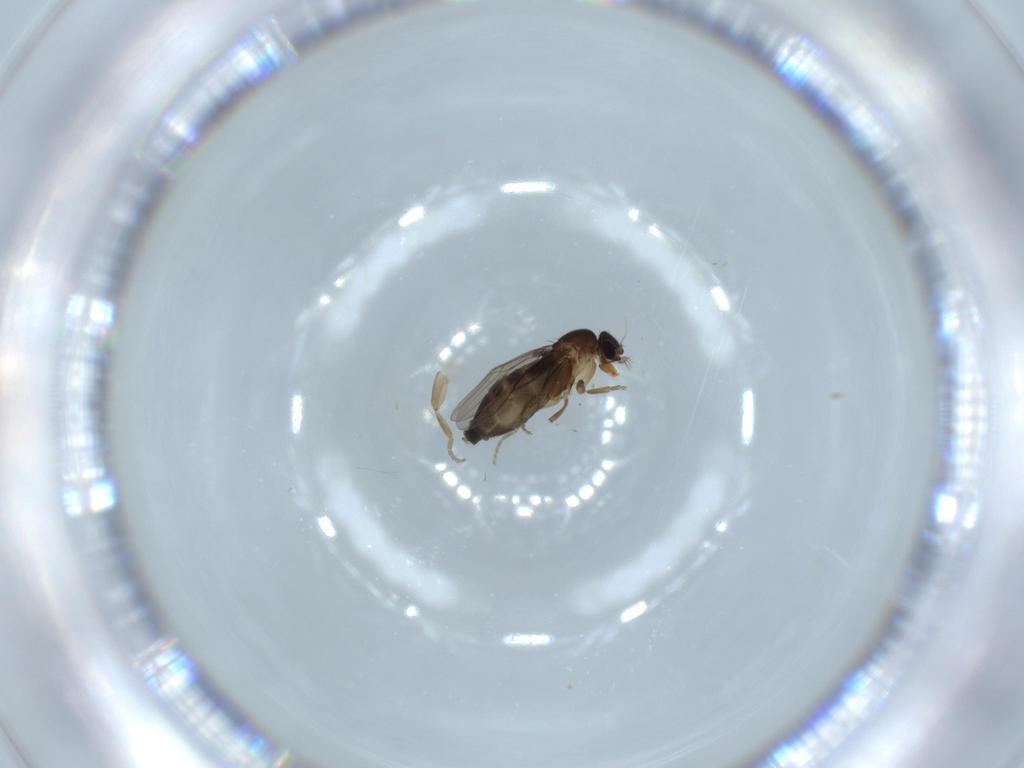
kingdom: Animalia
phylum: Arthropoda
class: Insecta
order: Diptera
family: Phoridae
